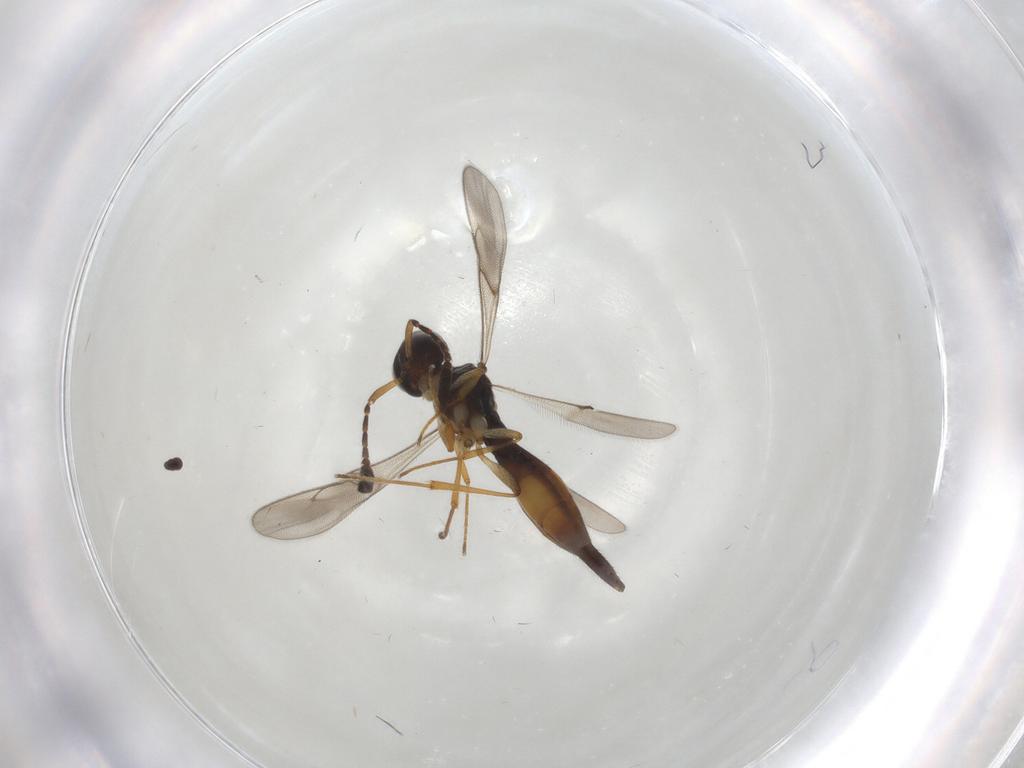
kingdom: Animalia
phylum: Arthropoda
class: Insecta
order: Hymenoptera
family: Scelionidae
